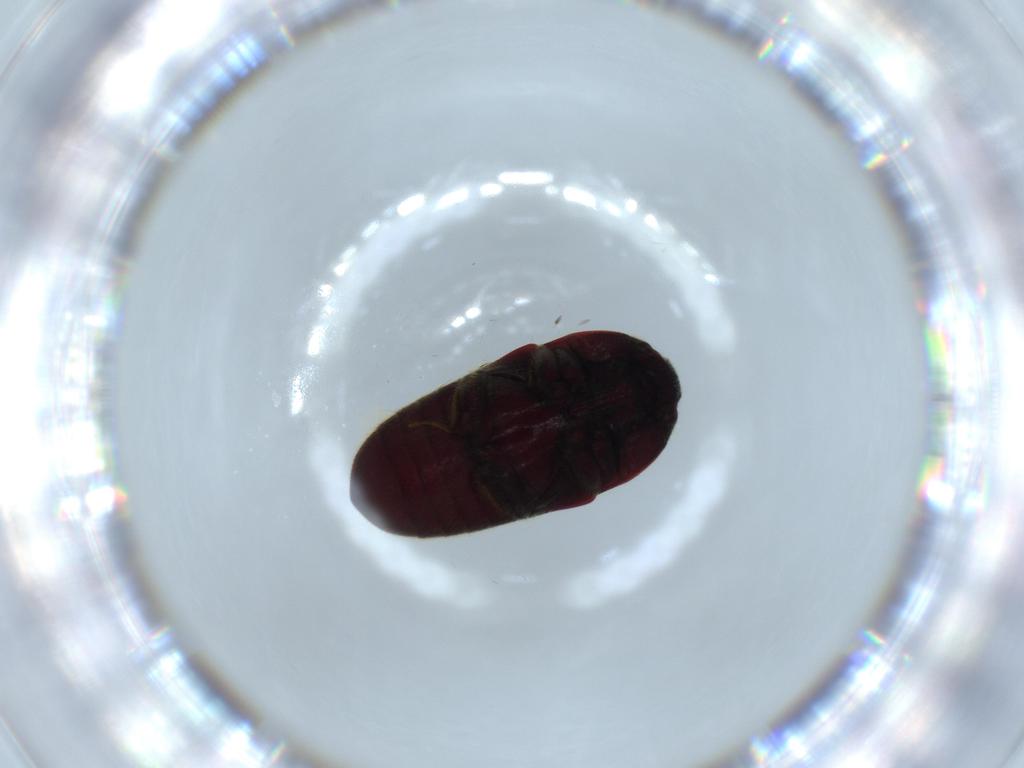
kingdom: Animalia
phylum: Arthropoda
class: Insecta
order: Coleoptera
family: Throscidae
